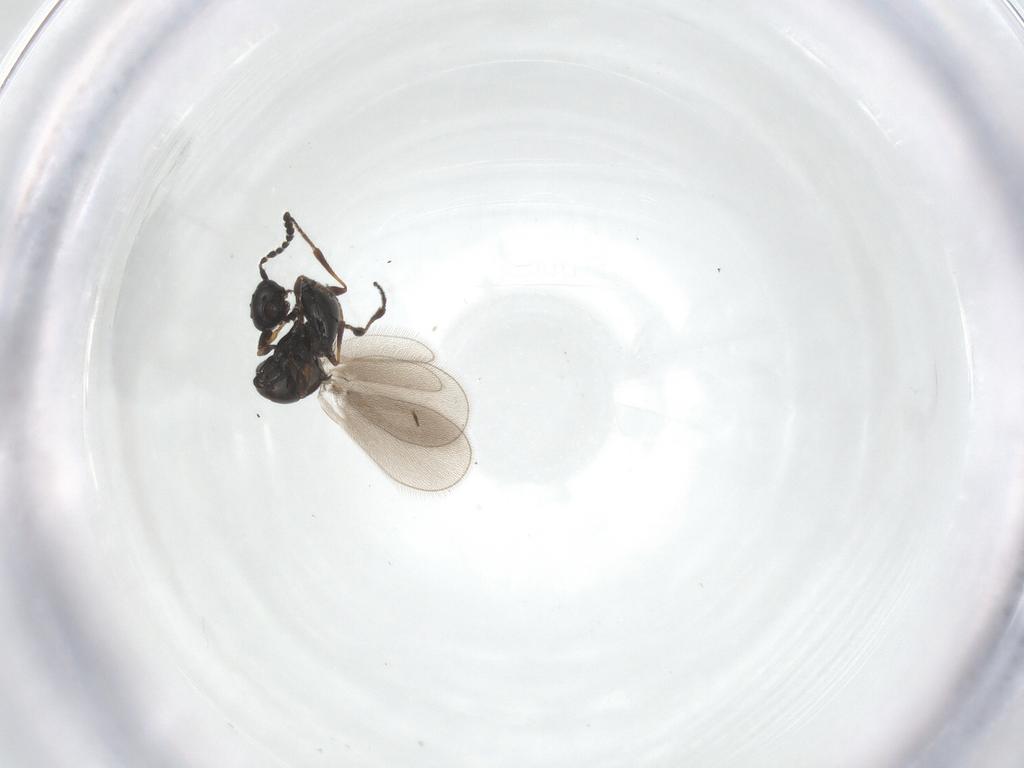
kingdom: Animalia
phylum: Arthropoda
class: Insecta
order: Hymenoptera
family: Platygastridae
